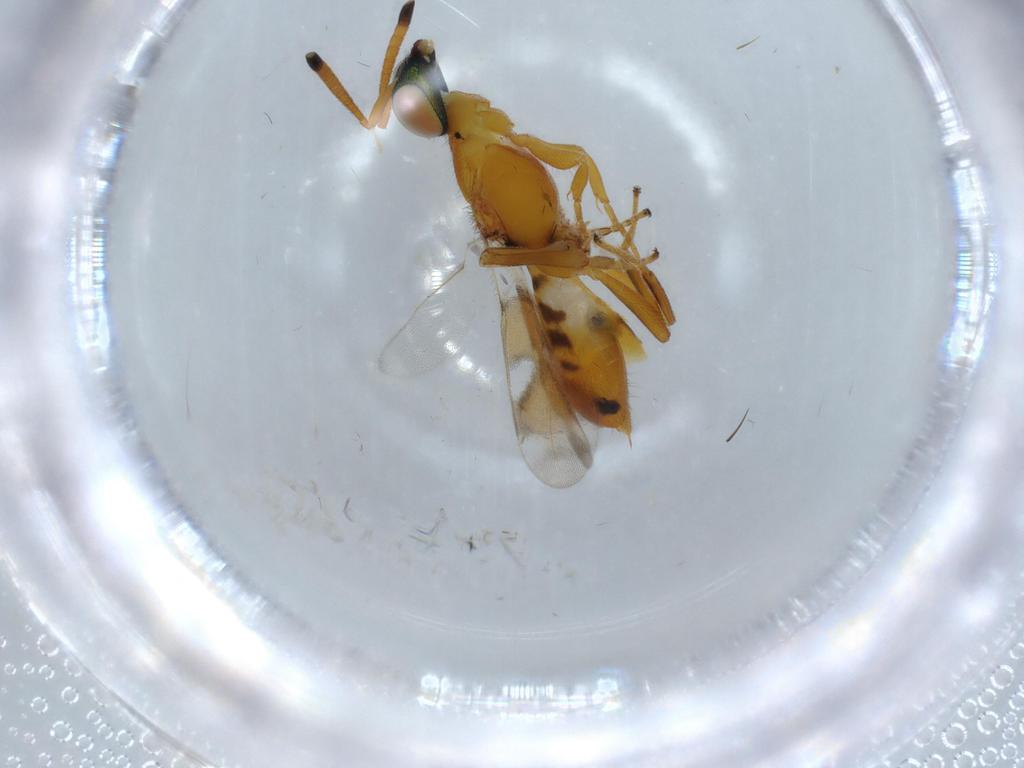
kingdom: Animalia
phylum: Arthropoda
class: Insecta
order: Hymenoptera
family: Eupelmidae
